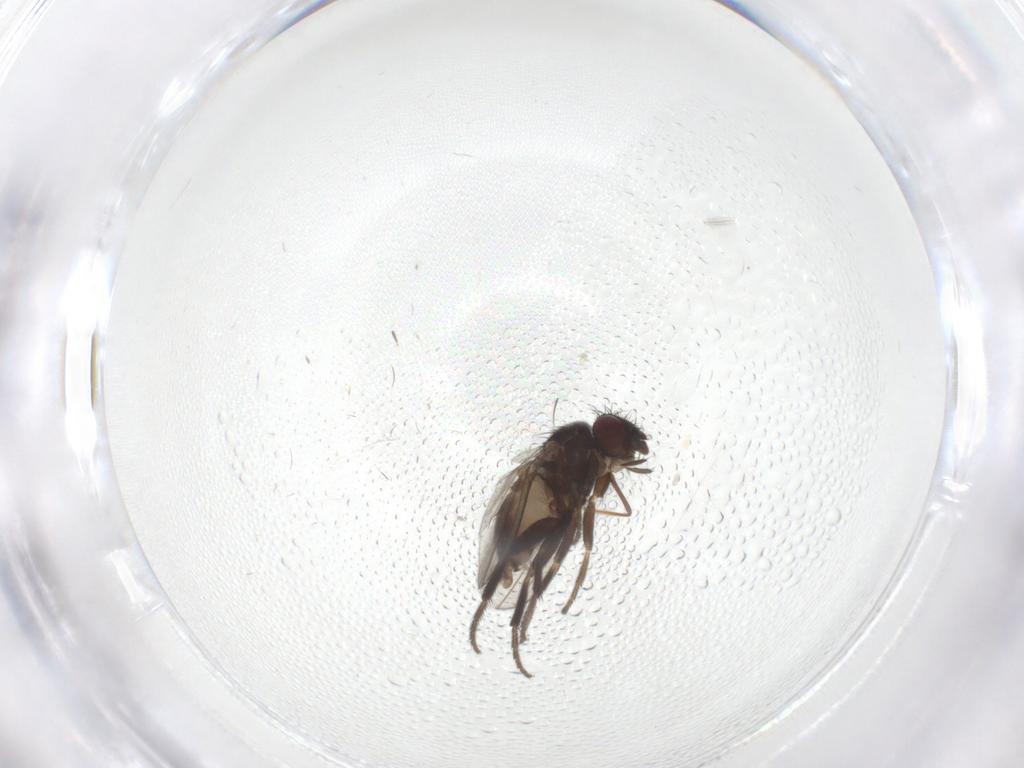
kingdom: Animalia
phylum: Arthropoda
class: Insecta
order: Diptera
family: Milichiidae
